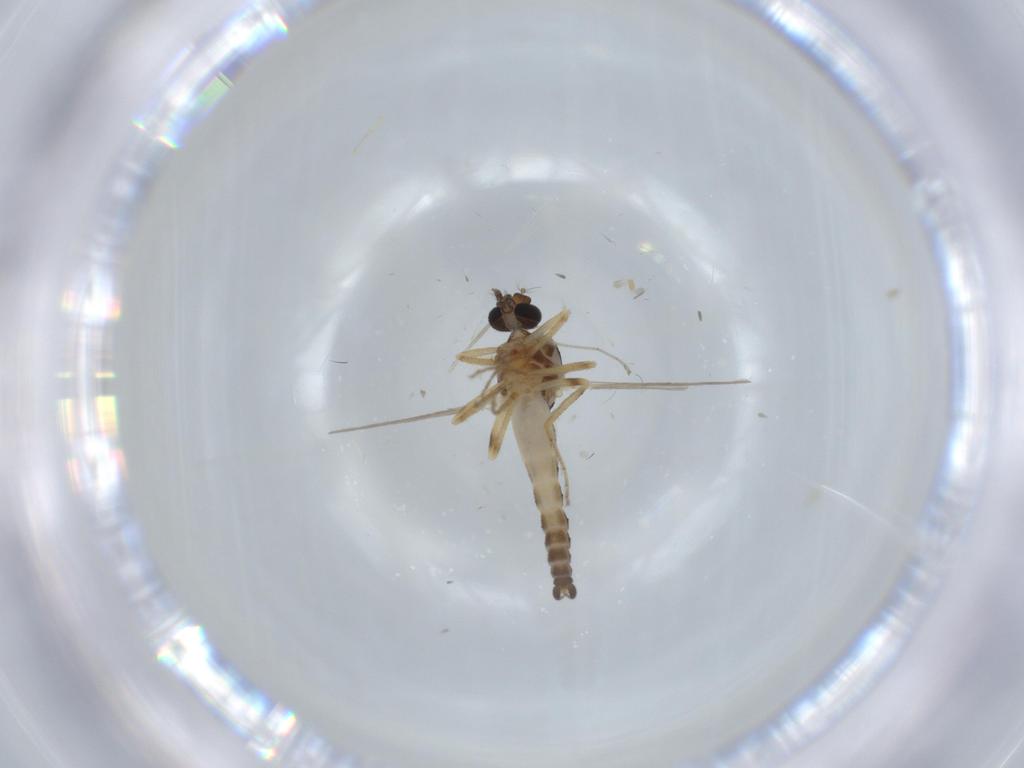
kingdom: Animalia
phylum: Arthropoda
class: Insecta
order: Diptera
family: Ceratopogonidae
